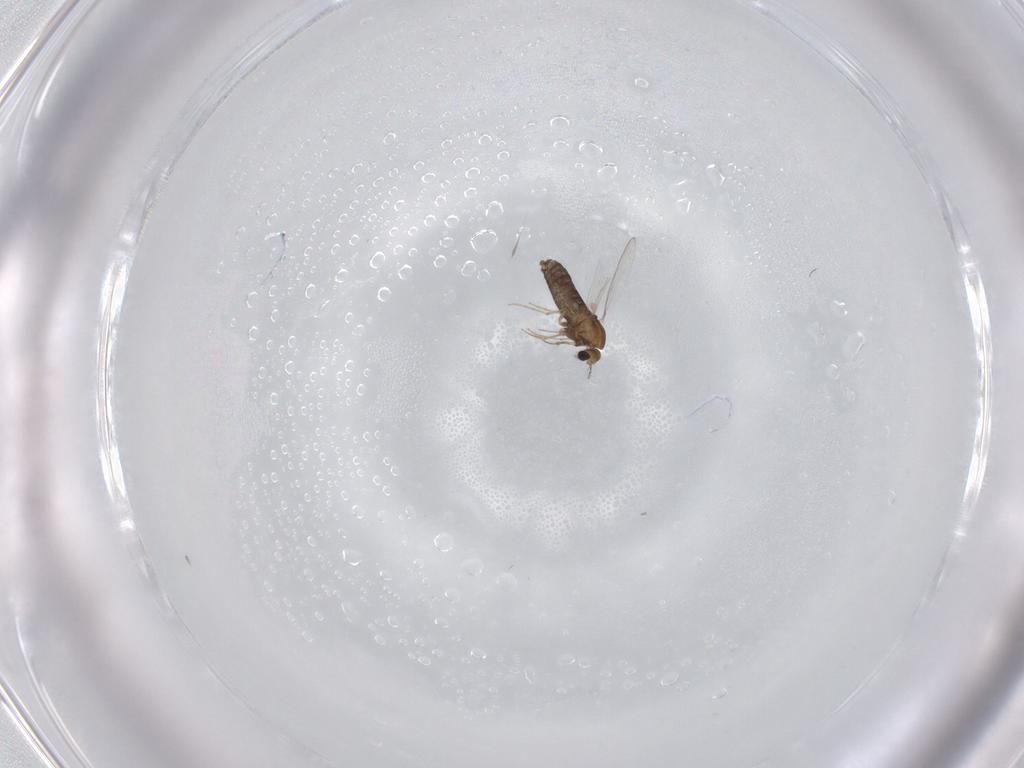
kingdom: Animalia
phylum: Arthropoda
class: Insecta
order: Diptera
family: Chironomidae
